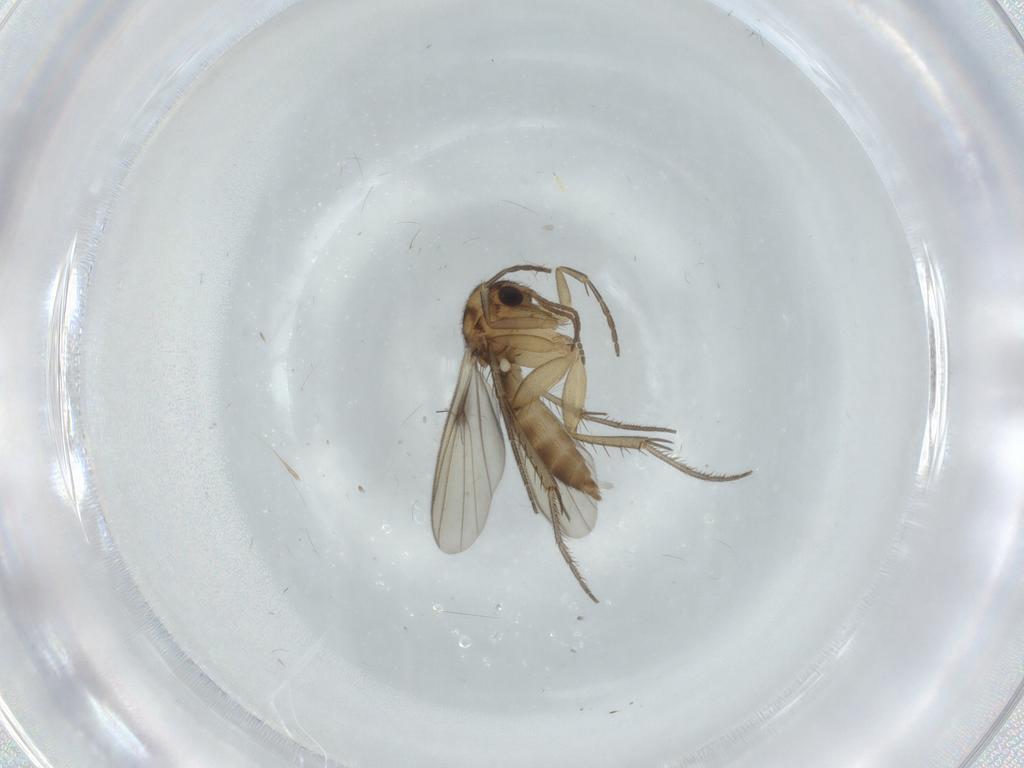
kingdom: Animalia
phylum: Arthropoda
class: Insecta
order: Diptera
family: Mycetophilidae
